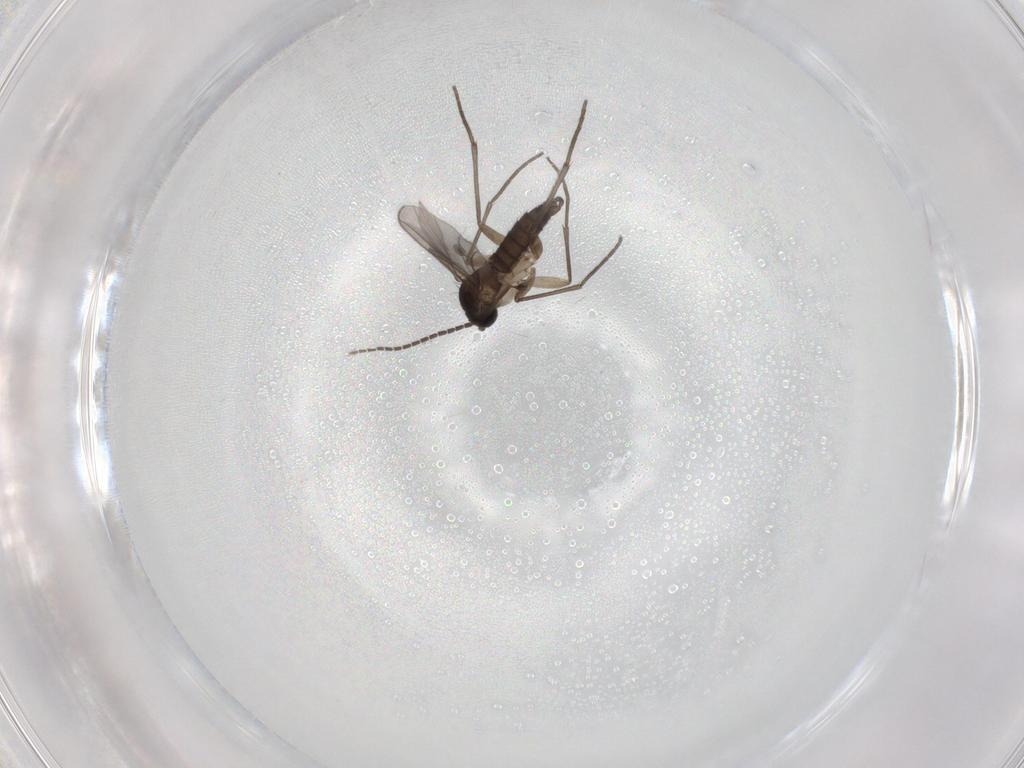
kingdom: Animalia
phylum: Arthropoda
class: Insecta
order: Diptera
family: Sciaridae
